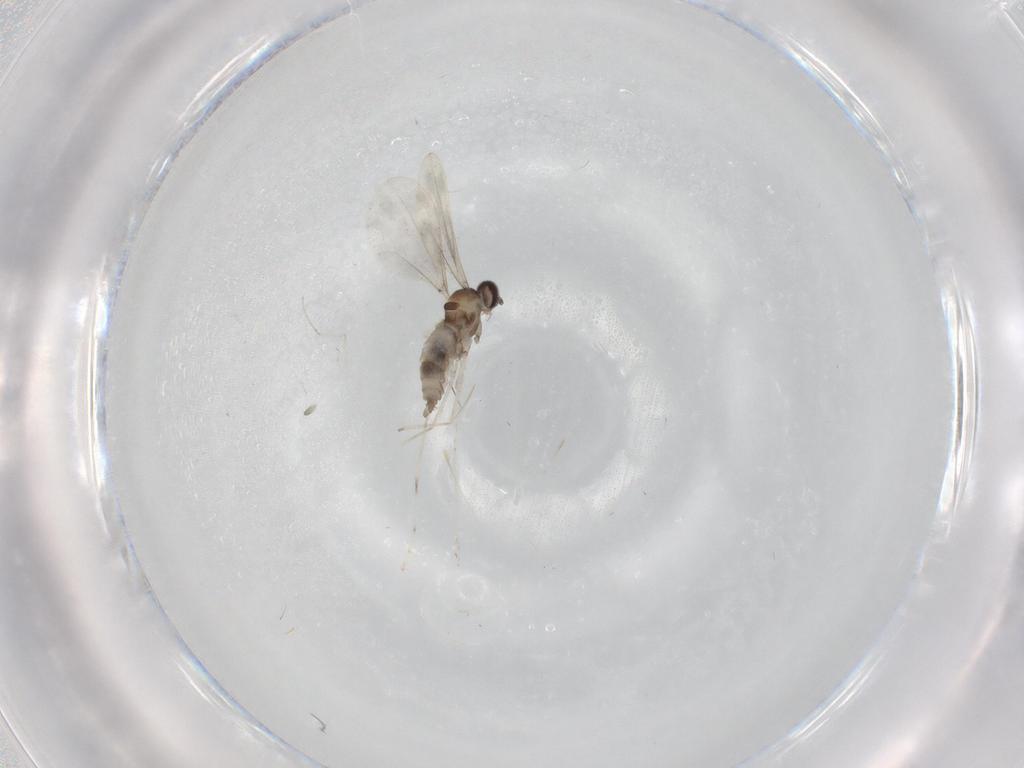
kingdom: Animalia
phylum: Arthropoda
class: Insecta
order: Diptera
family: Cecidomyiidae
